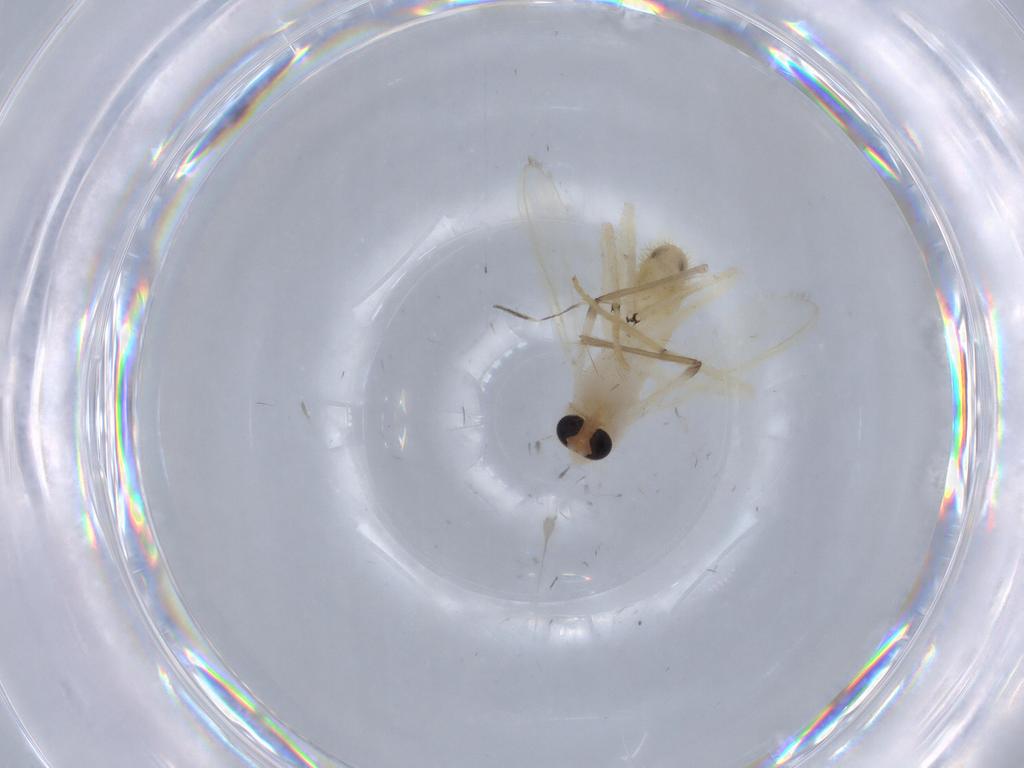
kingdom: Animalia
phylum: Arthropoda
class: Insecta
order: Diptera
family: Chironomidae
